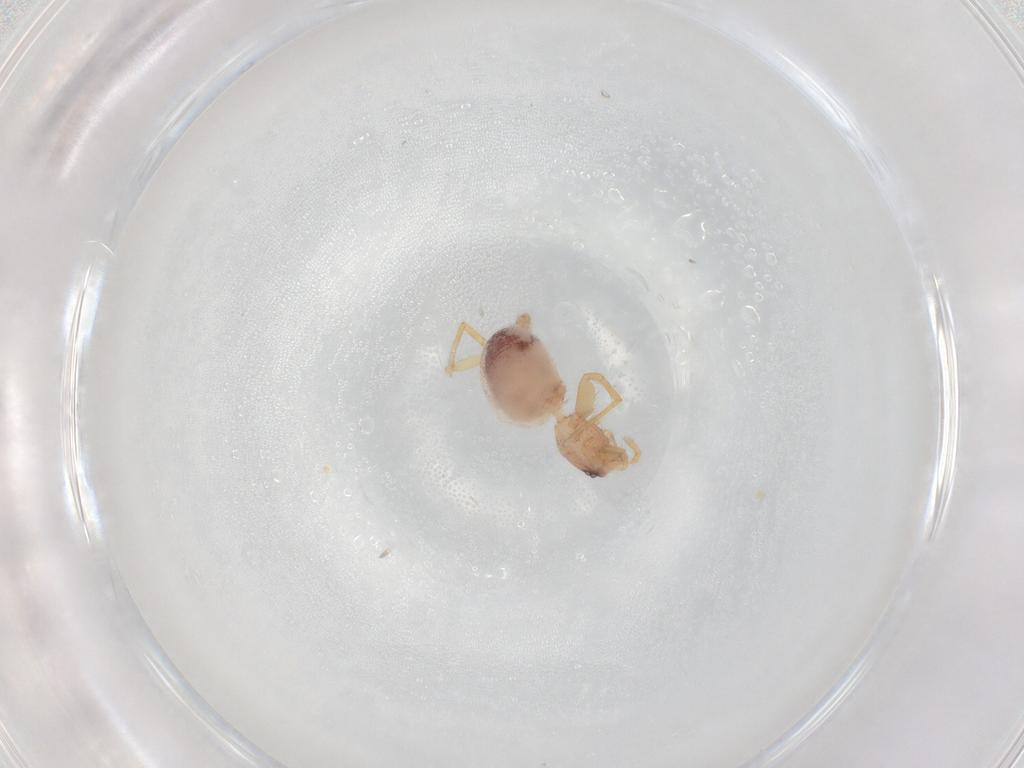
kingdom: Animalia
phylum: Arthropoda
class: Arachnida
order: Araneae
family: Oonopidae
